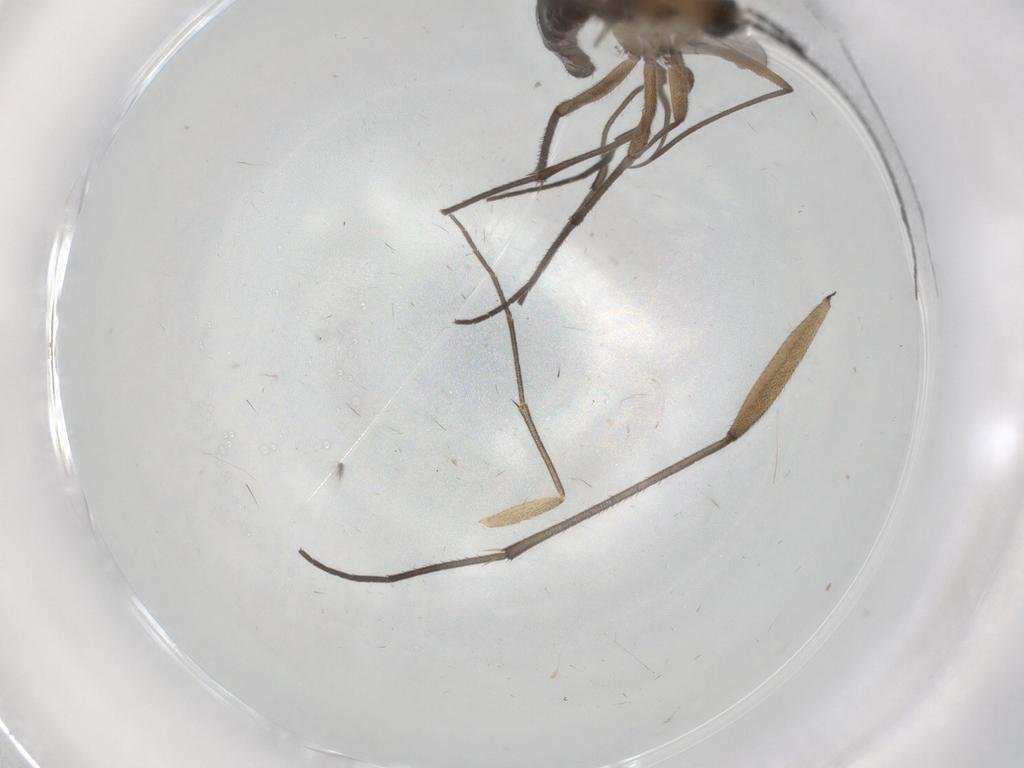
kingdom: Animalia
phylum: Arthropoda
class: Insecta
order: Diptera
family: Mycetophilidae
